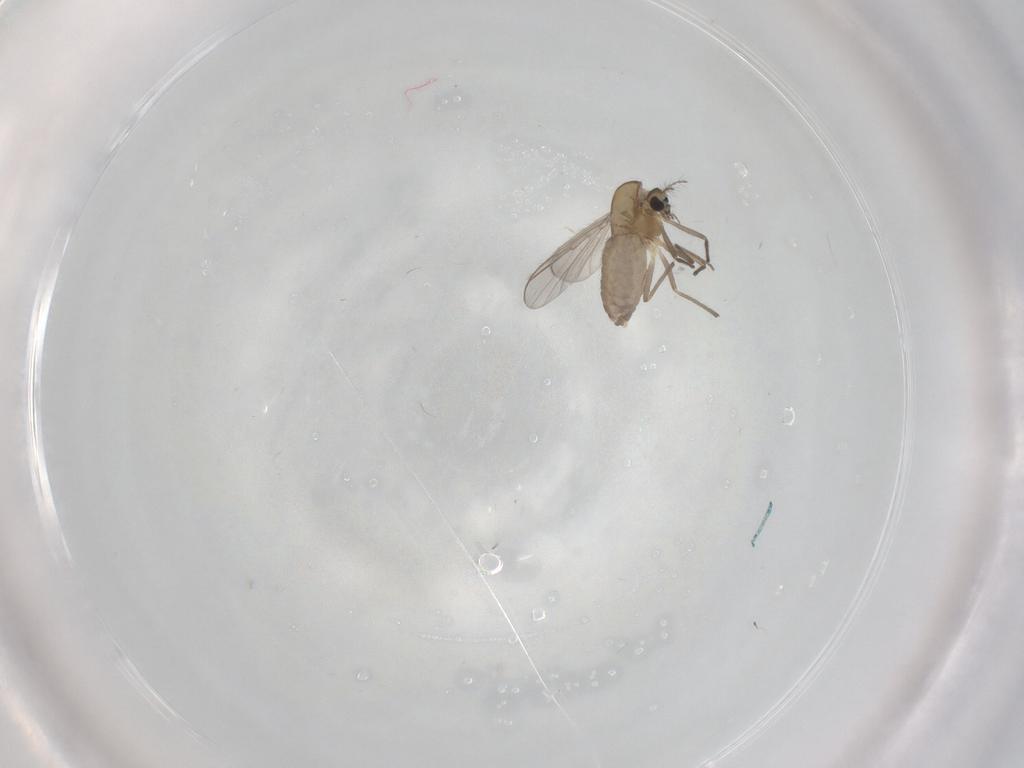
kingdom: Animalia
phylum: Arthropoda
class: Insecta
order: Diptera
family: Chironomidae
